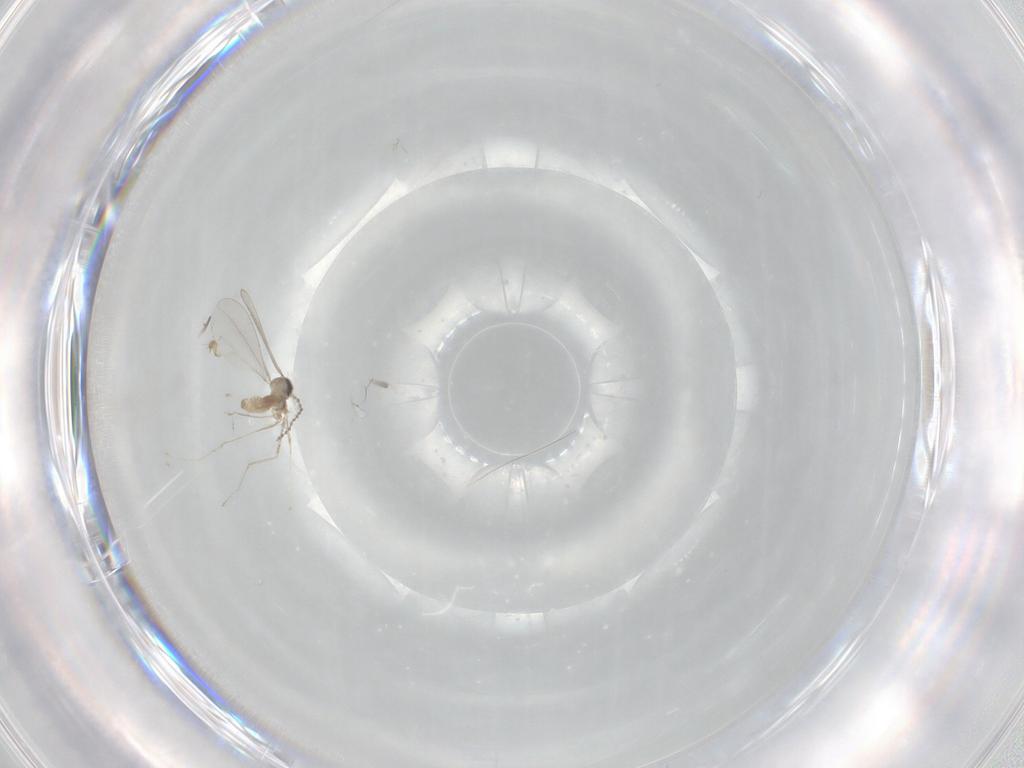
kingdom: Animalia
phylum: Arthropoda
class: Insecta
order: Diptera
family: Cecidomyiidae
